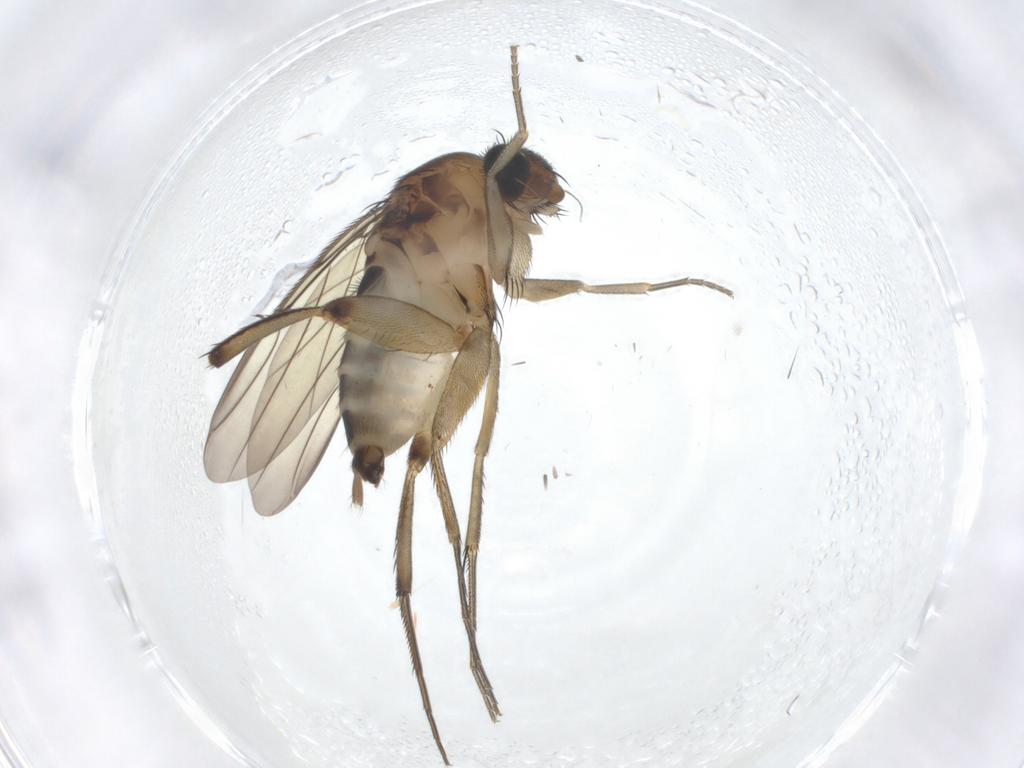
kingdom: Animalia
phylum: Arthropoda
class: Insecta
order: Diptera
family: Phoridae
